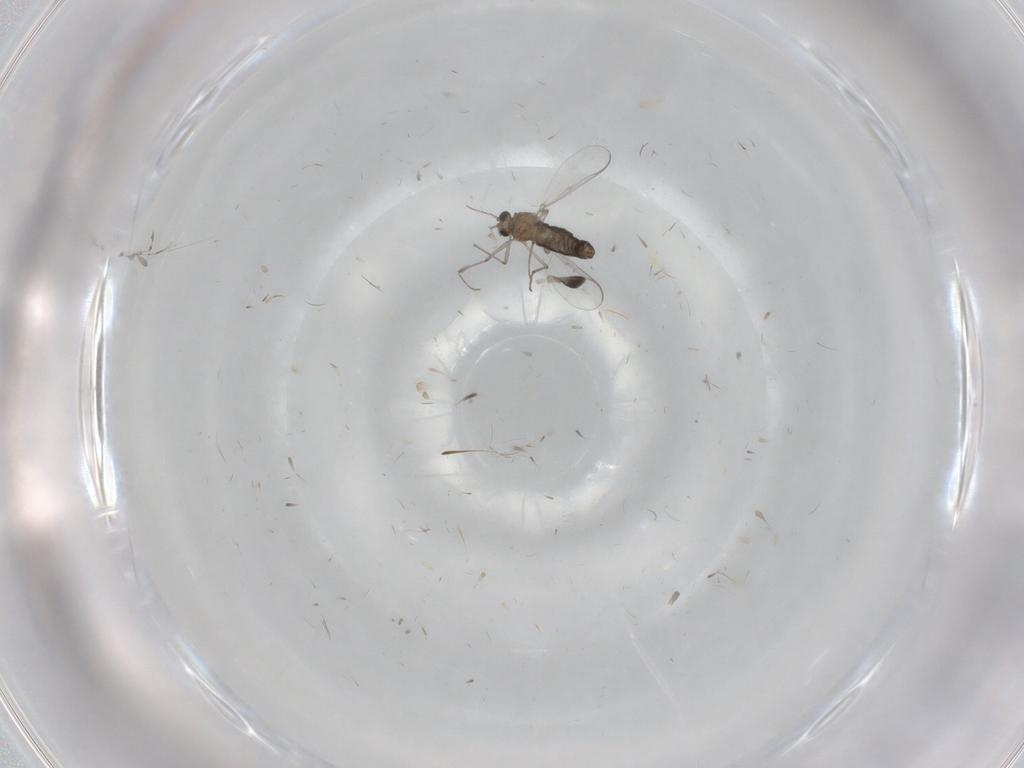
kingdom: Animalia
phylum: Arthropoda
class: Insecta
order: Diptera
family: Chironomidae
